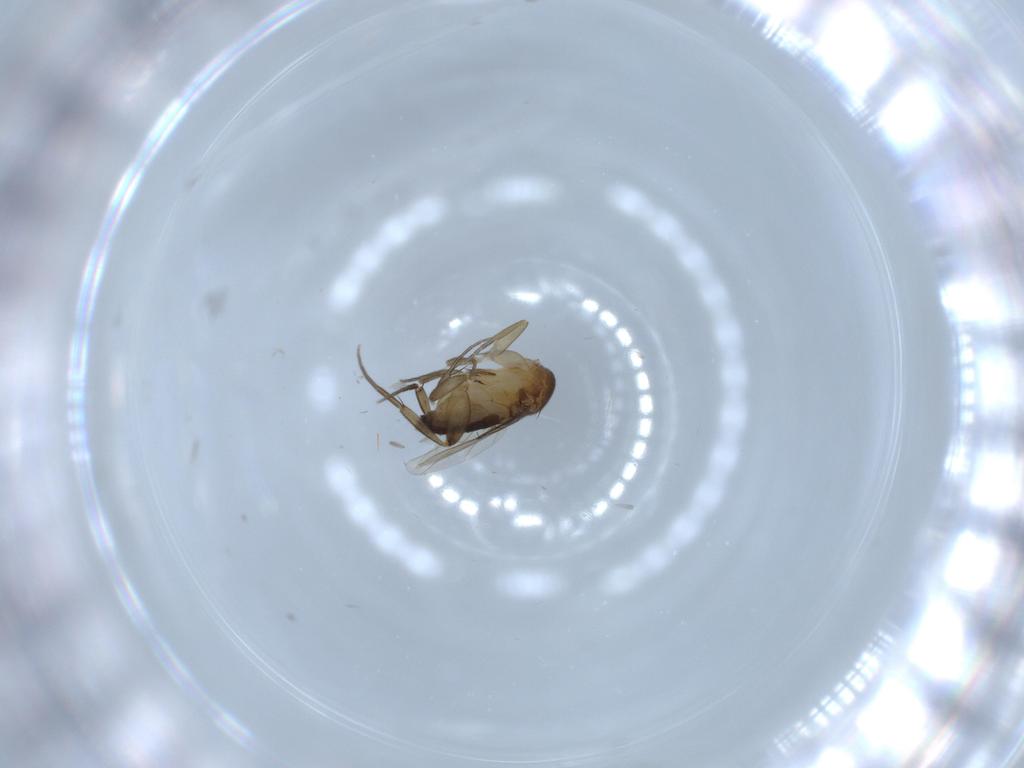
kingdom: Animalia
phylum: Arthropoda
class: Insecta
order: Diptera
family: Phoridae
